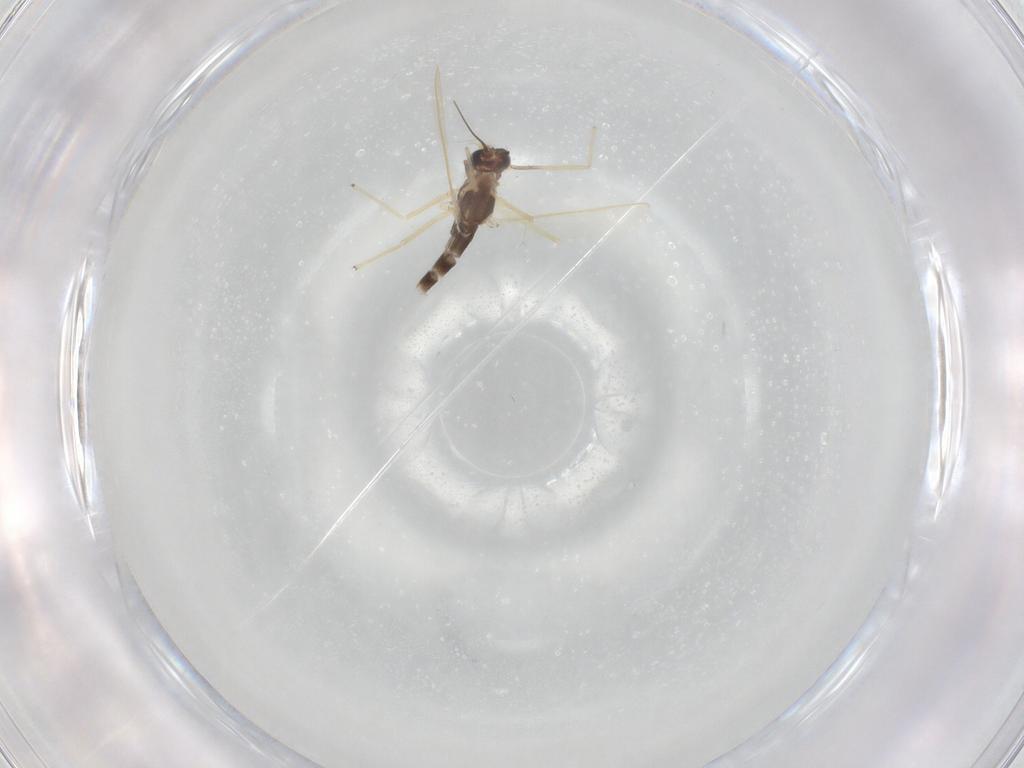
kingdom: Animalia
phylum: Arthropoda
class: Insecta
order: Diptera
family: Chironomidae
